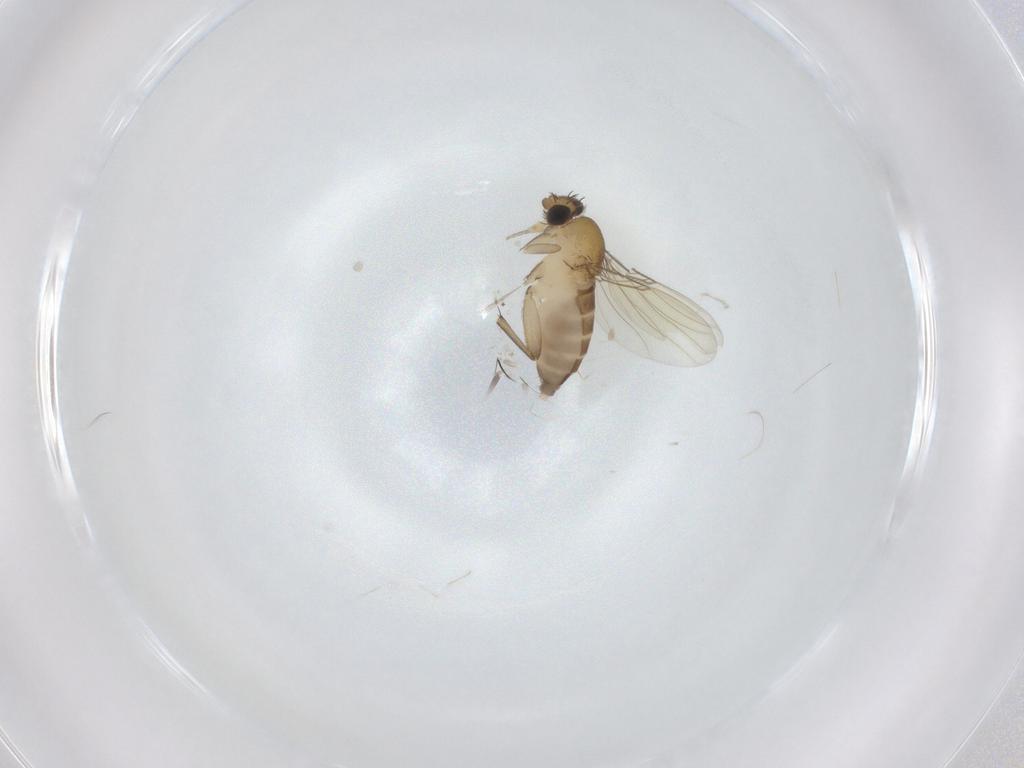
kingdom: Animalia
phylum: Arthropoda
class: Insecta
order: Diptera
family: Phoridae
